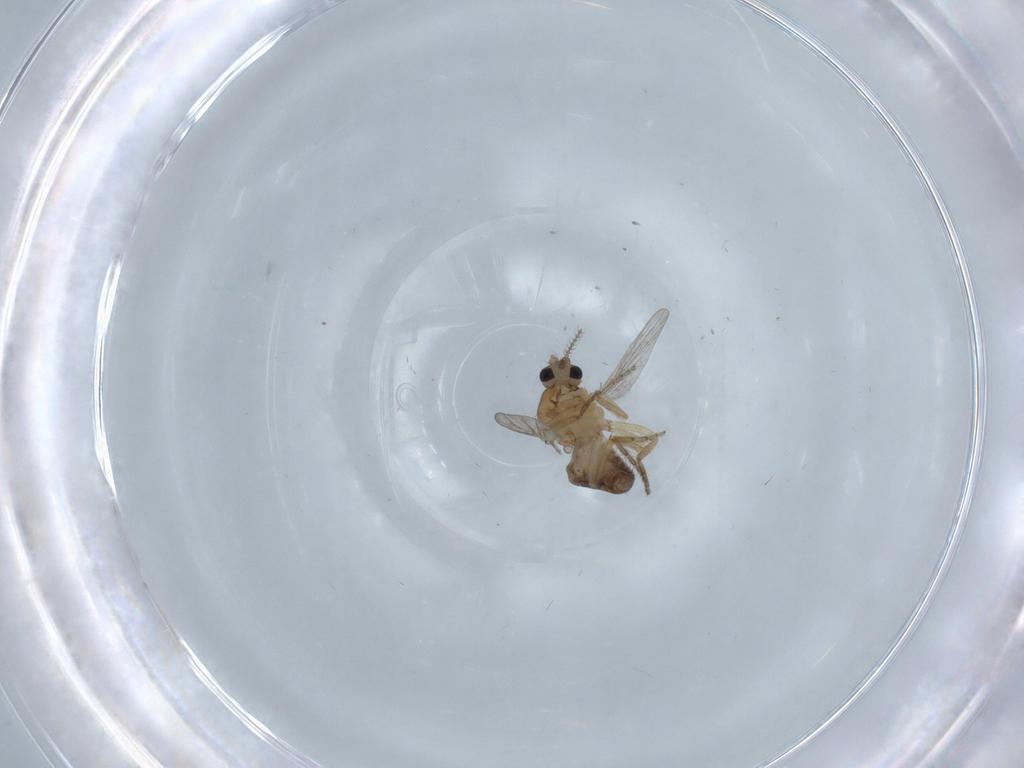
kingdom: Animalia
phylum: Arthropoda
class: Insecta
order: Diptera
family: Ceratopogonidae
